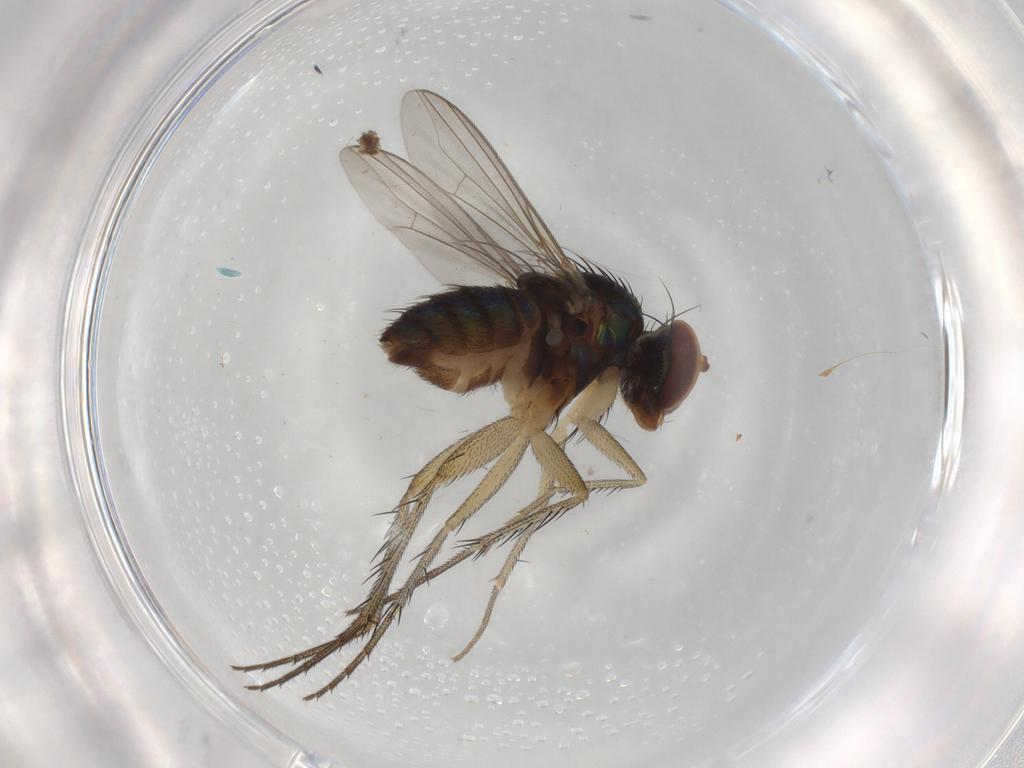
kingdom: Animalia
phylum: Arthropoda
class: Insecta
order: Diptera
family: Dolichopodidae
